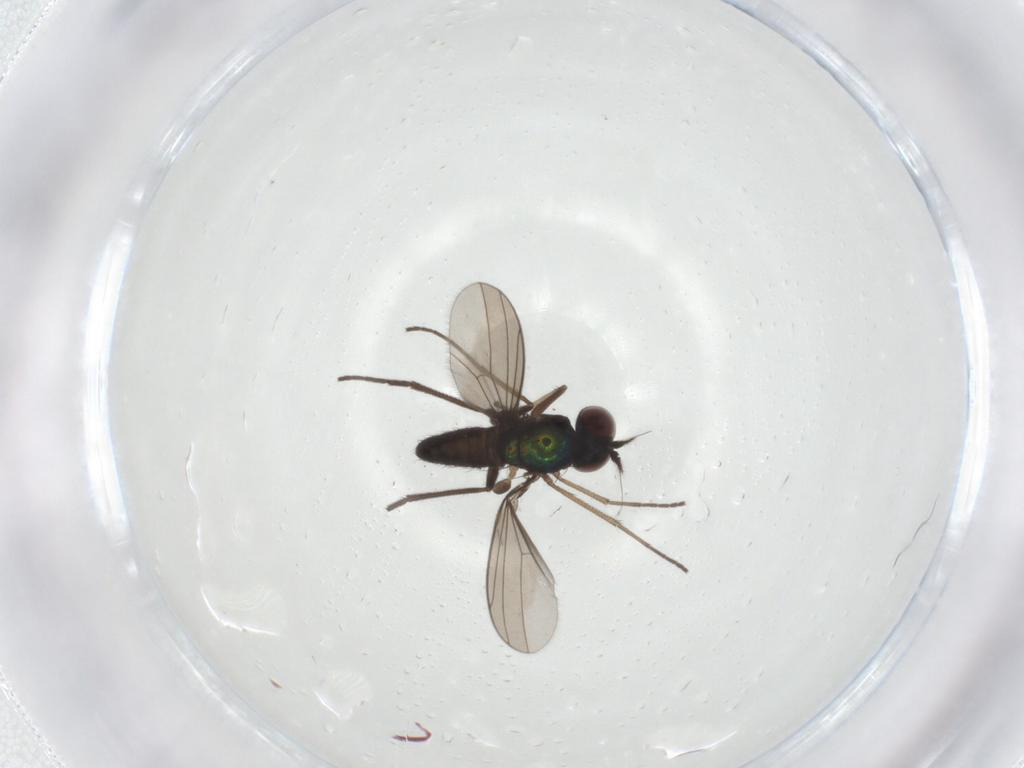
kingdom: Animalia
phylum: Arthropoda
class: Insecta
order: Diptera
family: Dolichopodidae
